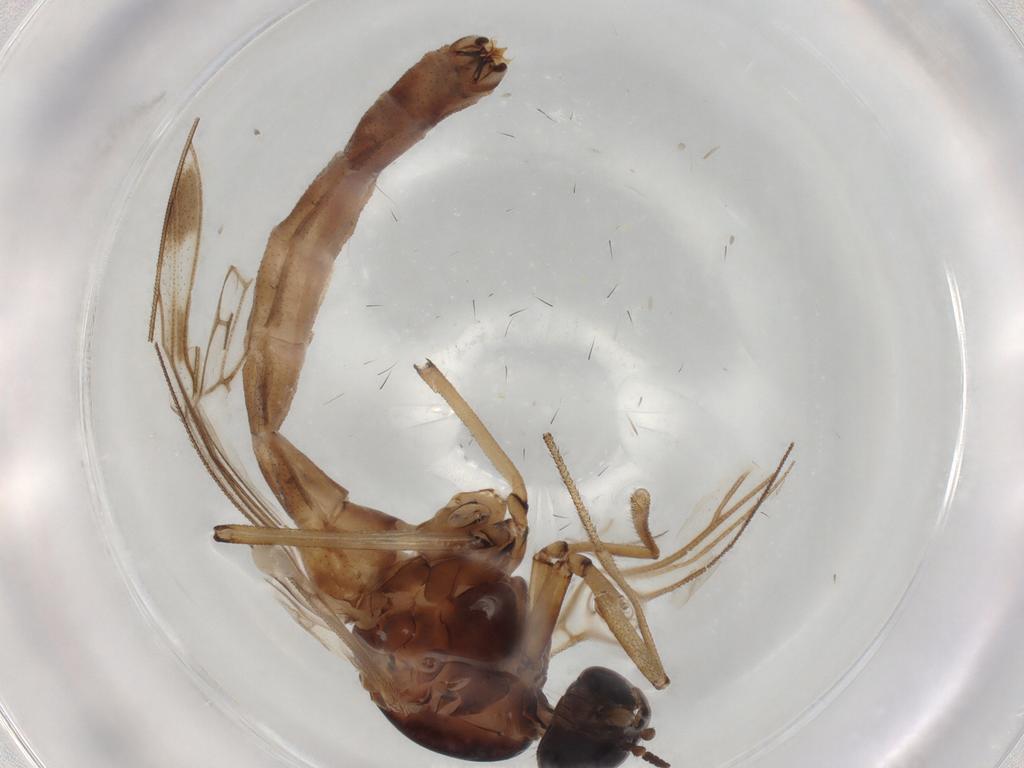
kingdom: Animalia
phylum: Arthropoda
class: Insecta
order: Diptera
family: Anisopodidae
